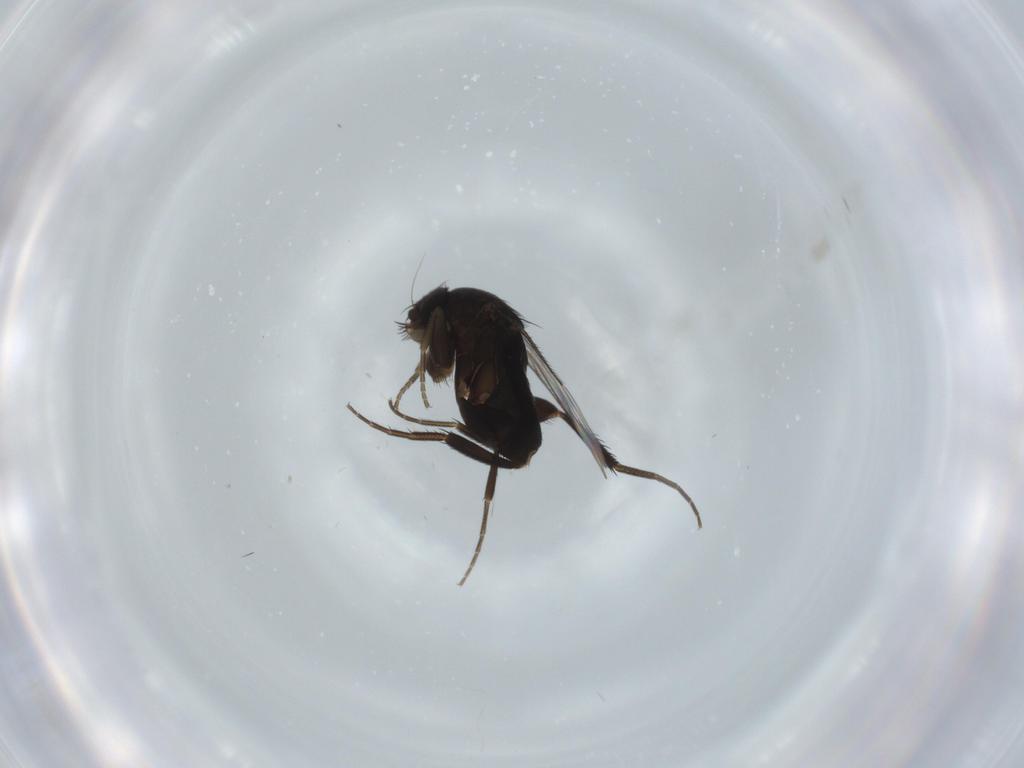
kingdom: Animalia
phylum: Arthropoda
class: Insecta
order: Diptera
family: Phoridae
